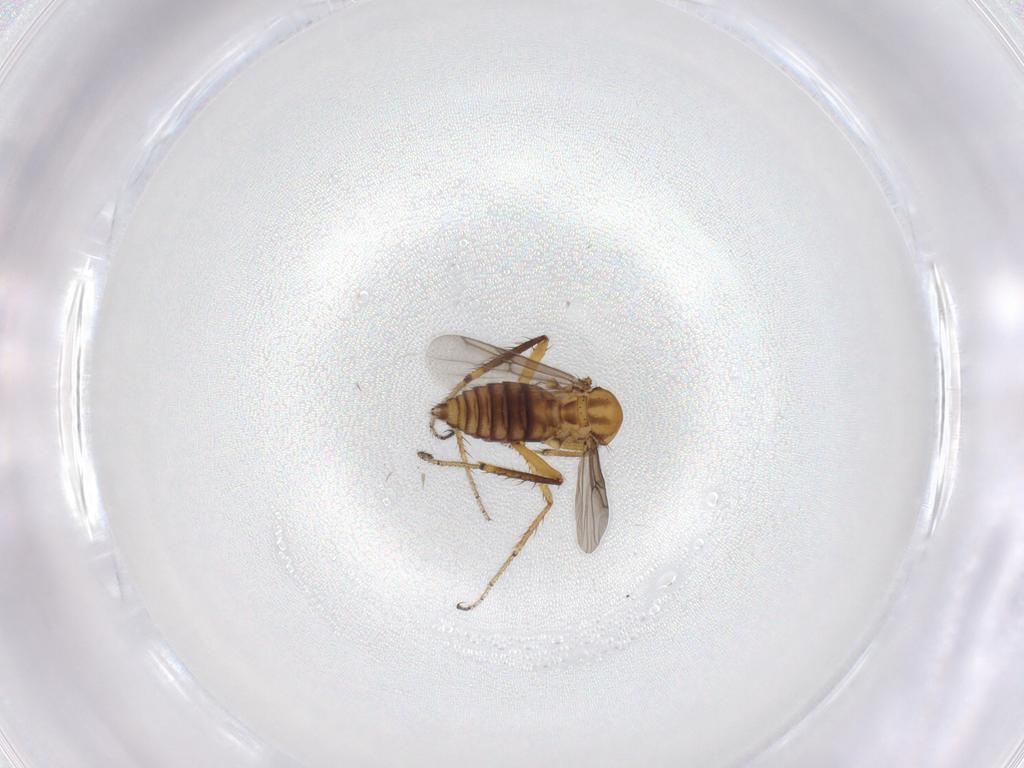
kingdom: Animalia
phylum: Arthropoda
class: Insecta
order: Diptera
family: Ceratopogonidae
